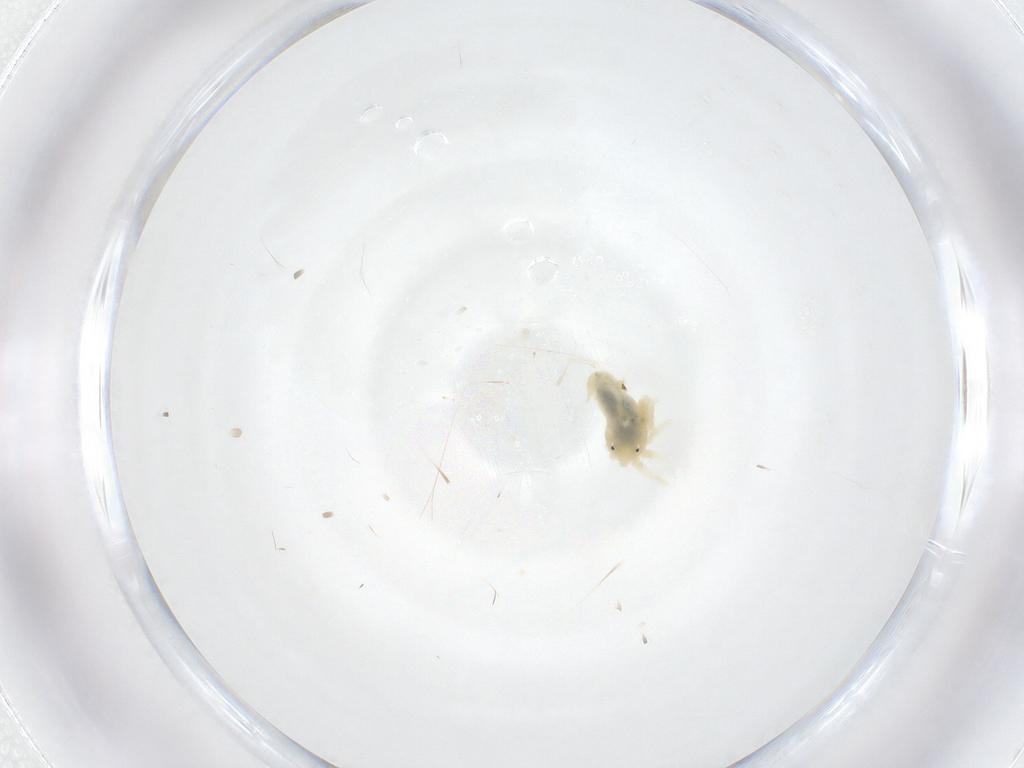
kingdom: Animalia
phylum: Arthropoda
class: Arachnida
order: Trombidiformes
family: Anystidae
